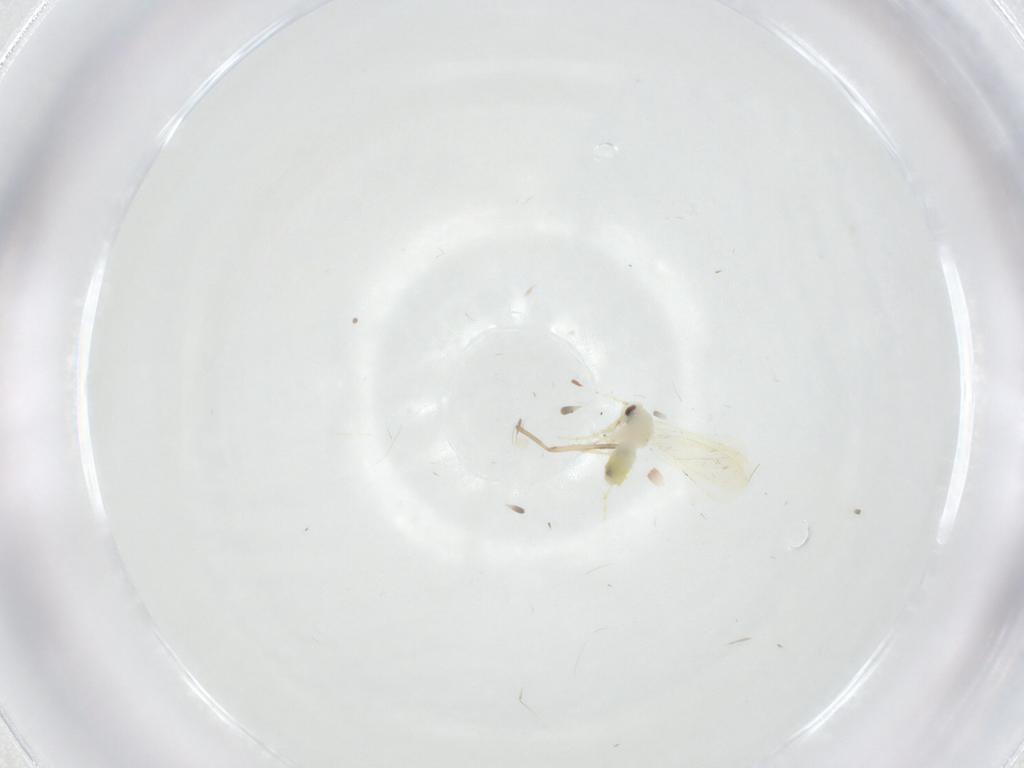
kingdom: Animalia
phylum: Arthropoda
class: Insecta
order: Diptera
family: Chironomidae
